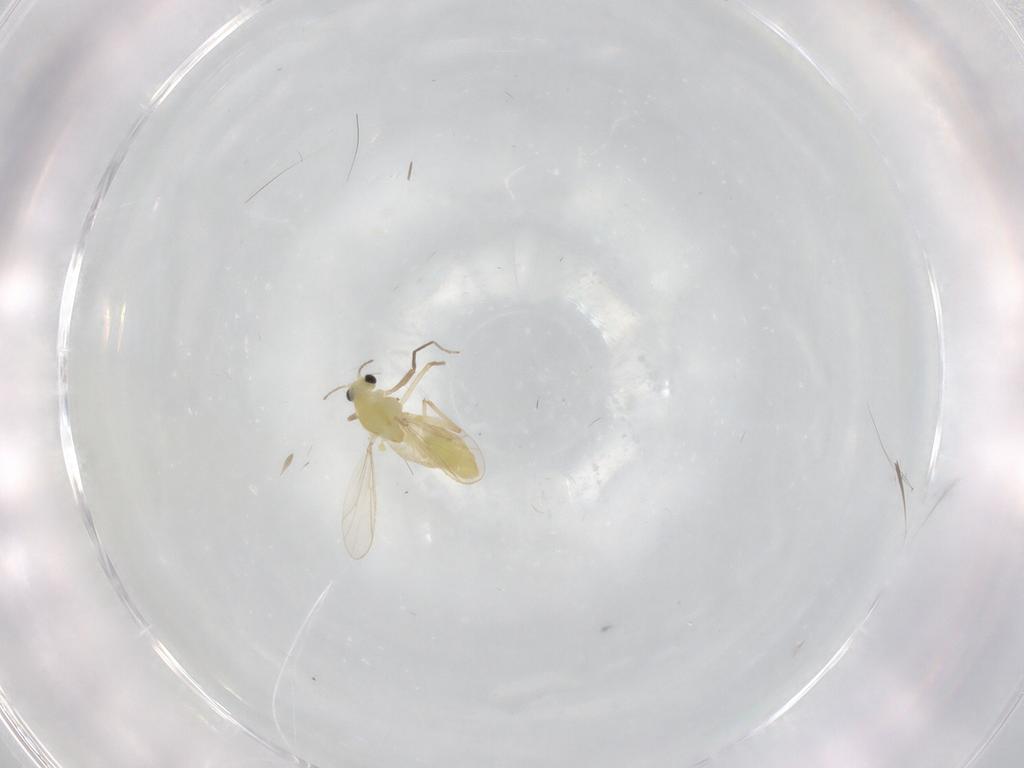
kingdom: Animalia
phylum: Arthropoda
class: Insecta
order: Diptera
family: Chironomidae
